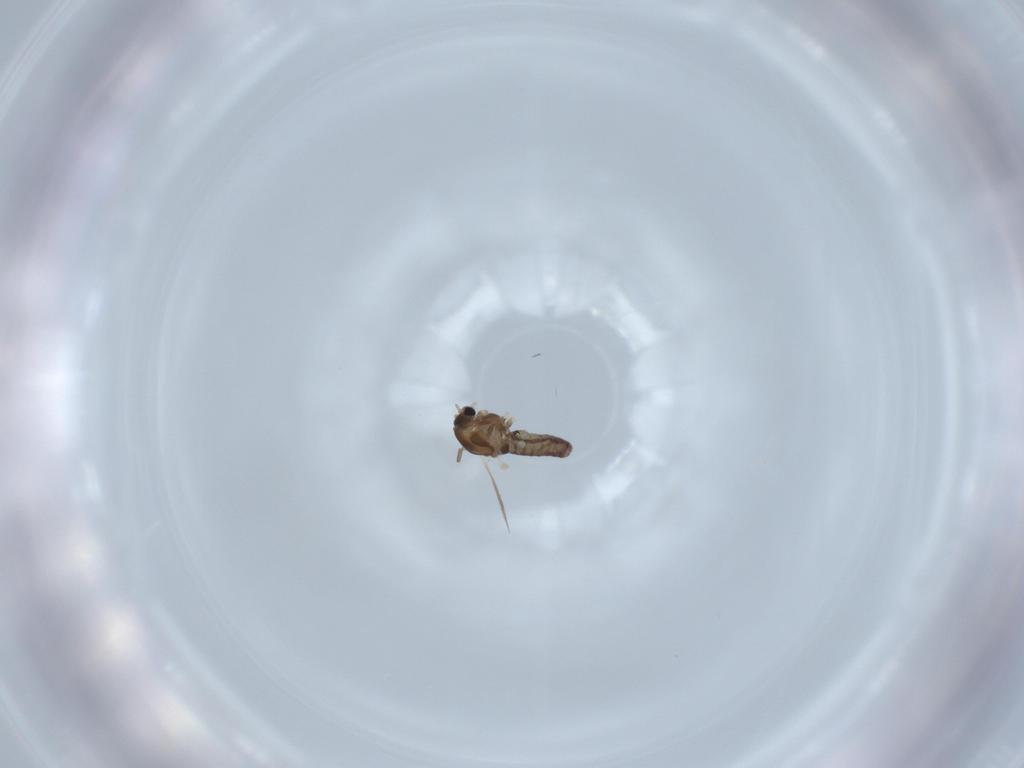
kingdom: Animalia
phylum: Arthropoda
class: Insecta
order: Diptera
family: Chironomidae
